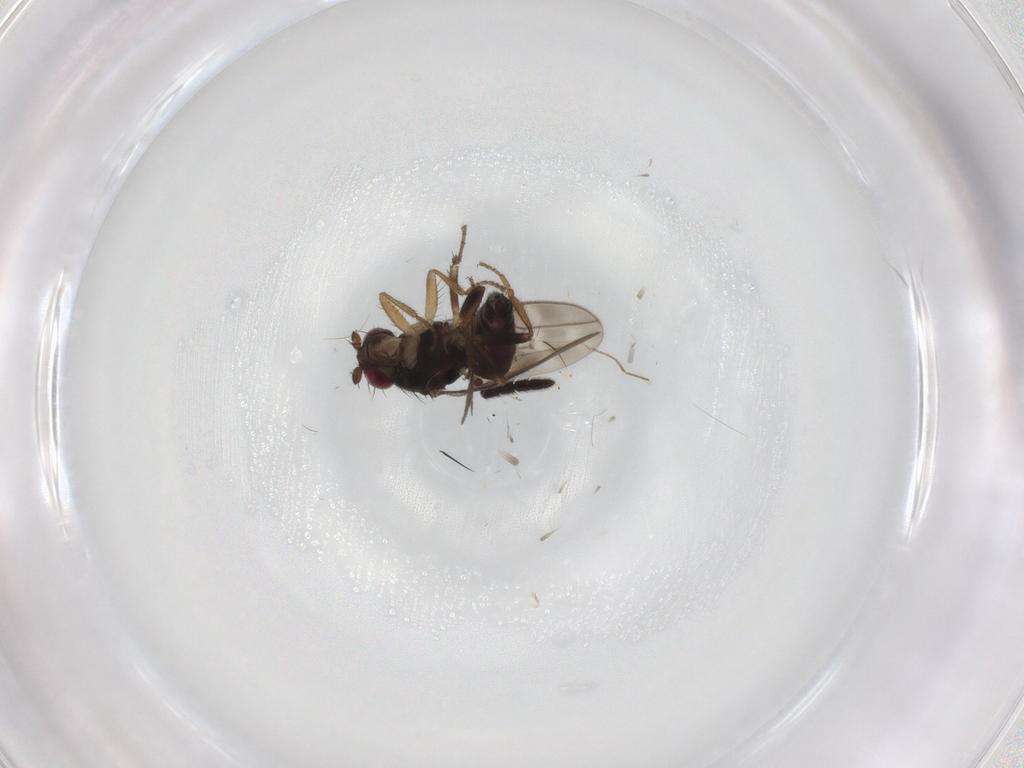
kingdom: Animalia
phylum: Arthropoda
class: Insecta
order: Diptera
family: Sphaeroceridae
